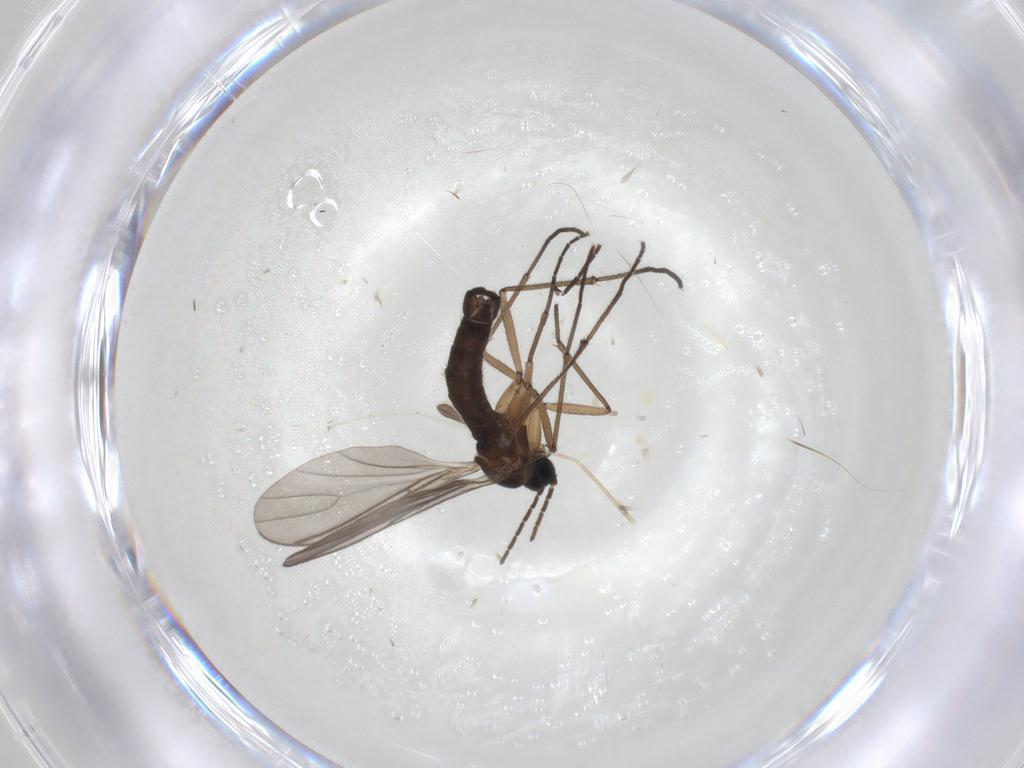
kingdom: Animalia
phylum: Arthropoda
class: Insecta
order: Diptera
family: Sciaridae
